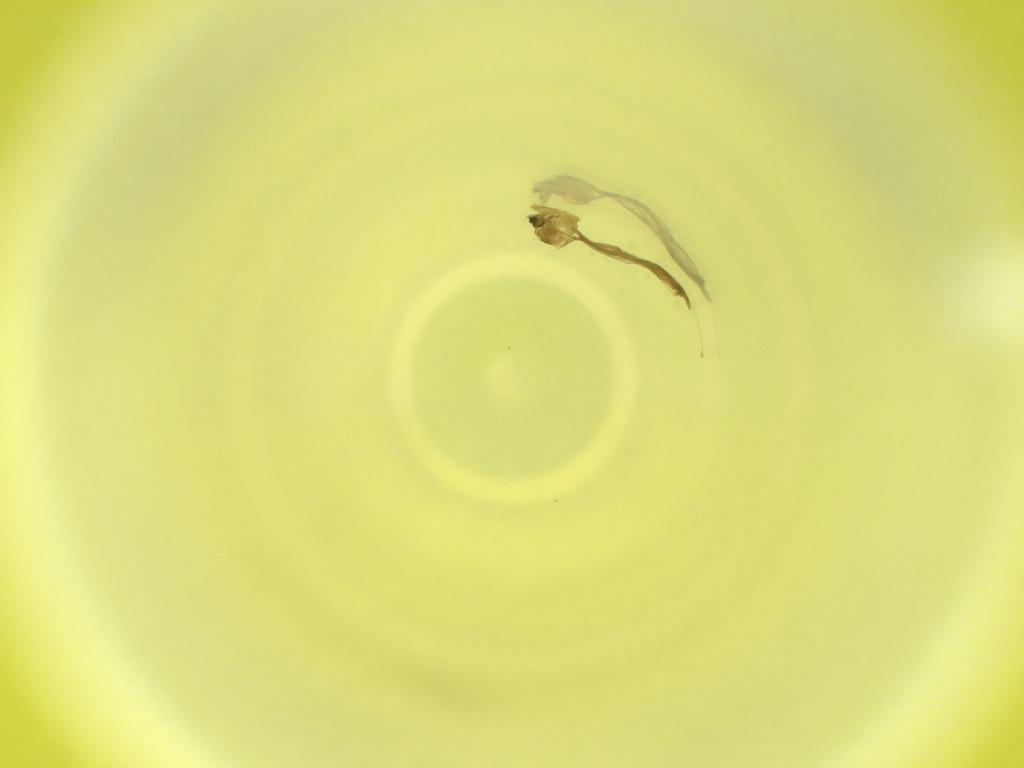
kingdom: Animalia
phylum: Arthropoda
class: Insecta
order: Diptera
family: Cecidomyiidae
